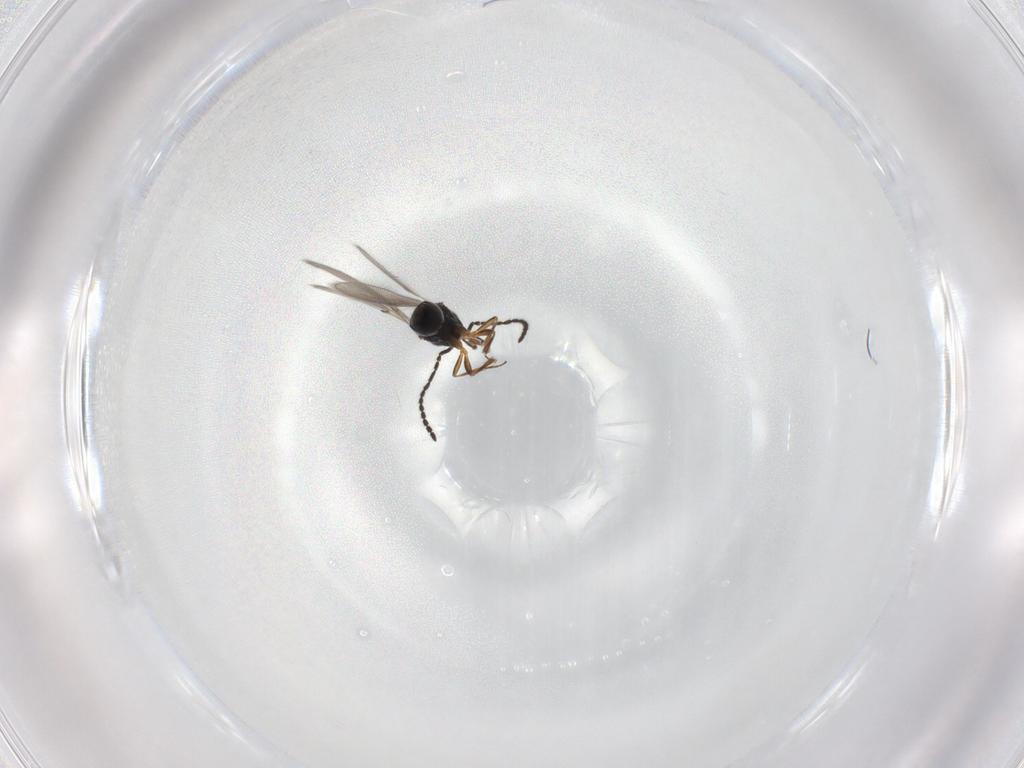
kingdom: Animalia
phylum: Arthropoda
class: Insecta
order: Hymenoptera
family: Scelionidae
